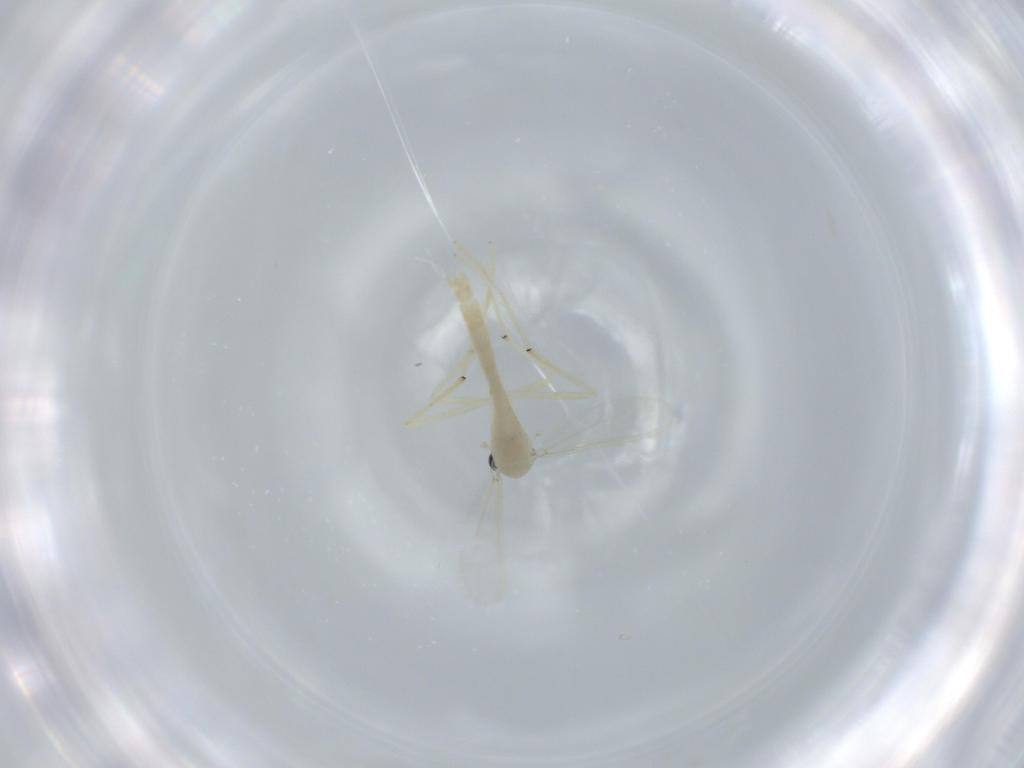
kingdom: Animalia
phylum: Arthropoda
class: Insecta
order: Diptera
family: Chironomidae
